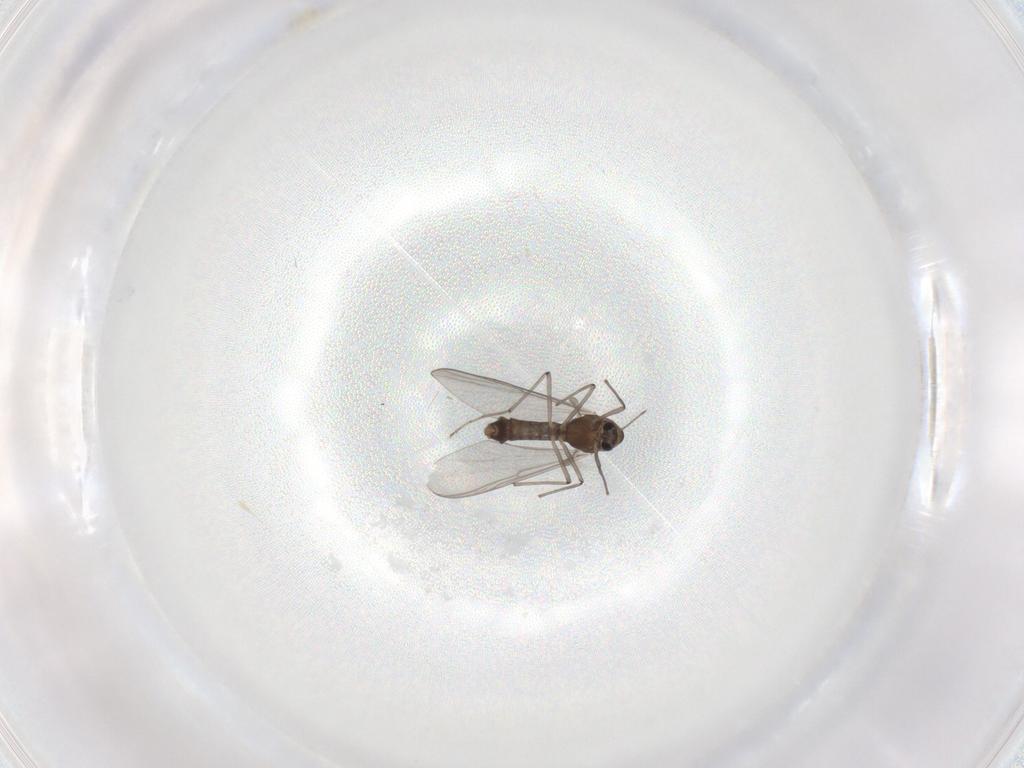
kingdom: Animalia
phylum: Arthropoda
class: Insecta
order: Diptera
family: Chironomidae
